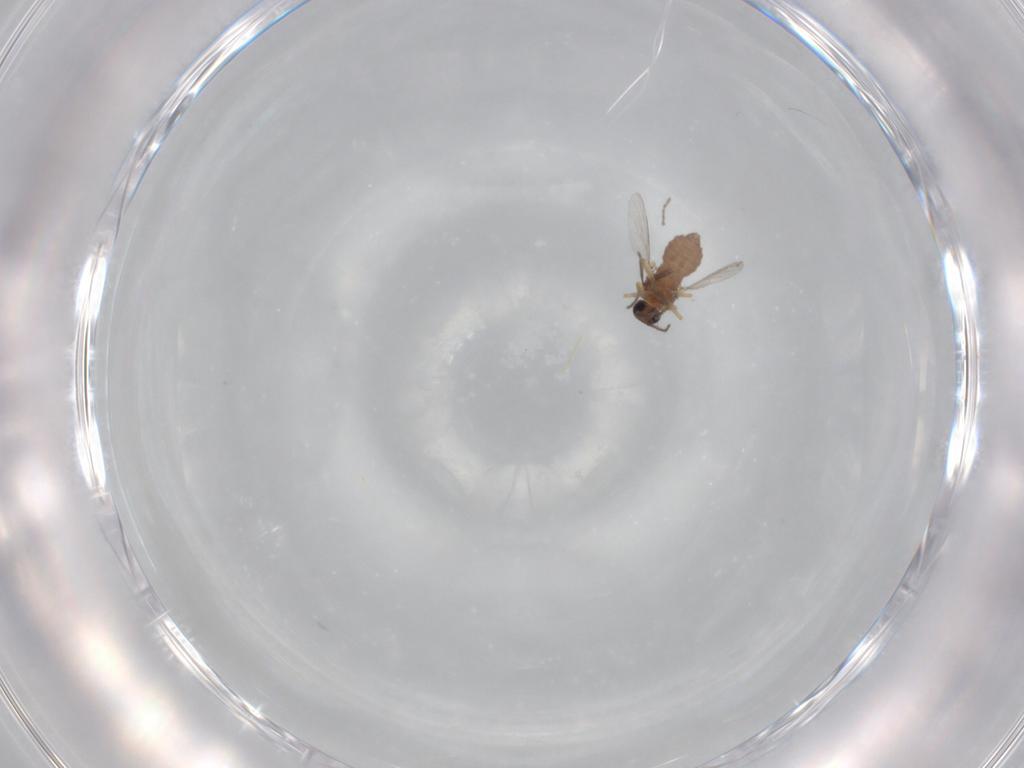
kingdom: Animalia
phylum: Arthropoda
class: Insecta
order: Diptera
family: Ceratopogonidae
